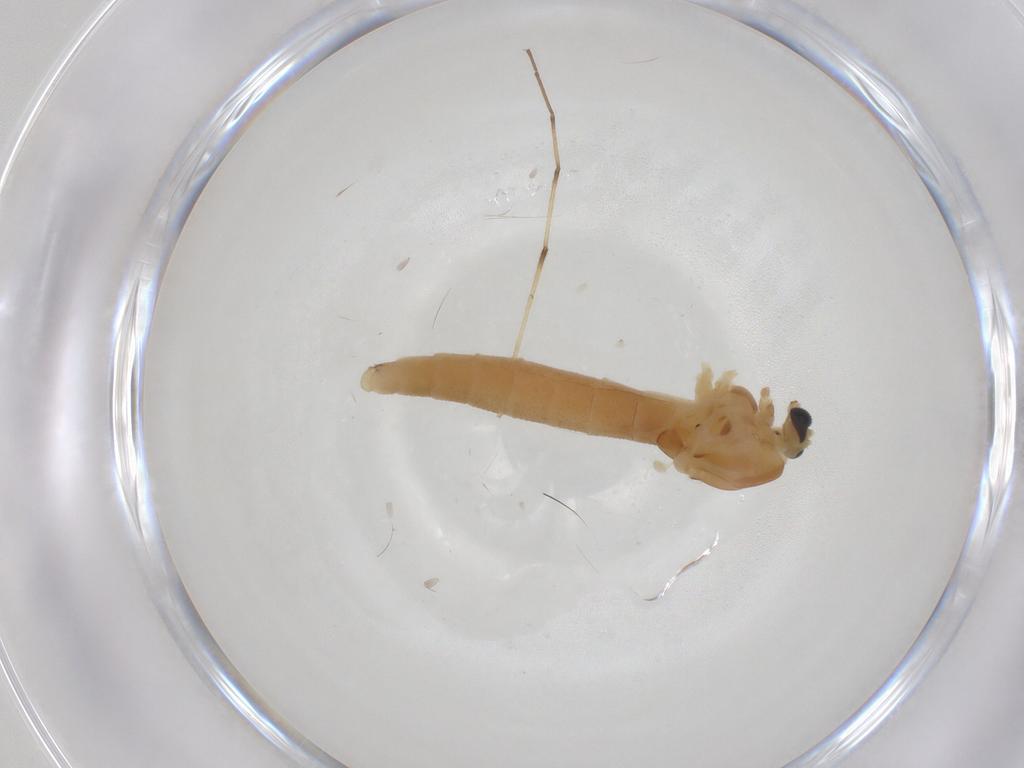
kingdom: Animalia
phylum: Arthropoda
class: Insecta
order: Diptera
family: Chironomidae
